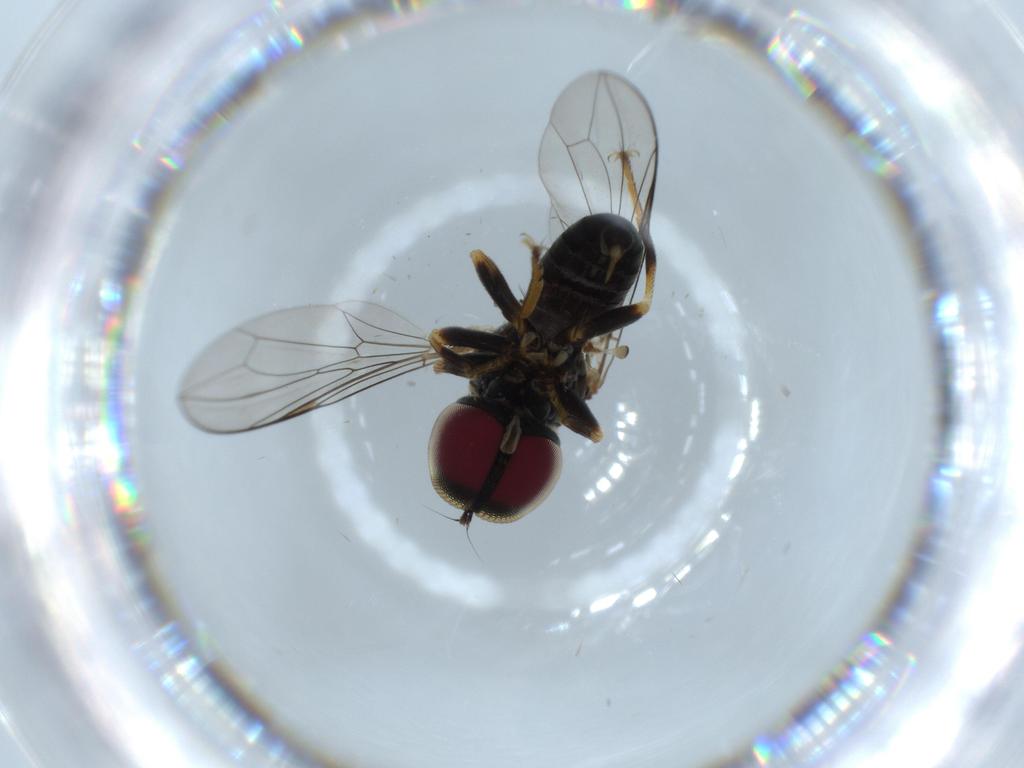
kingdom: Animalia
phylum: Arthropoda
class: Insecta
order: Diptera
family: Pipunculidae
